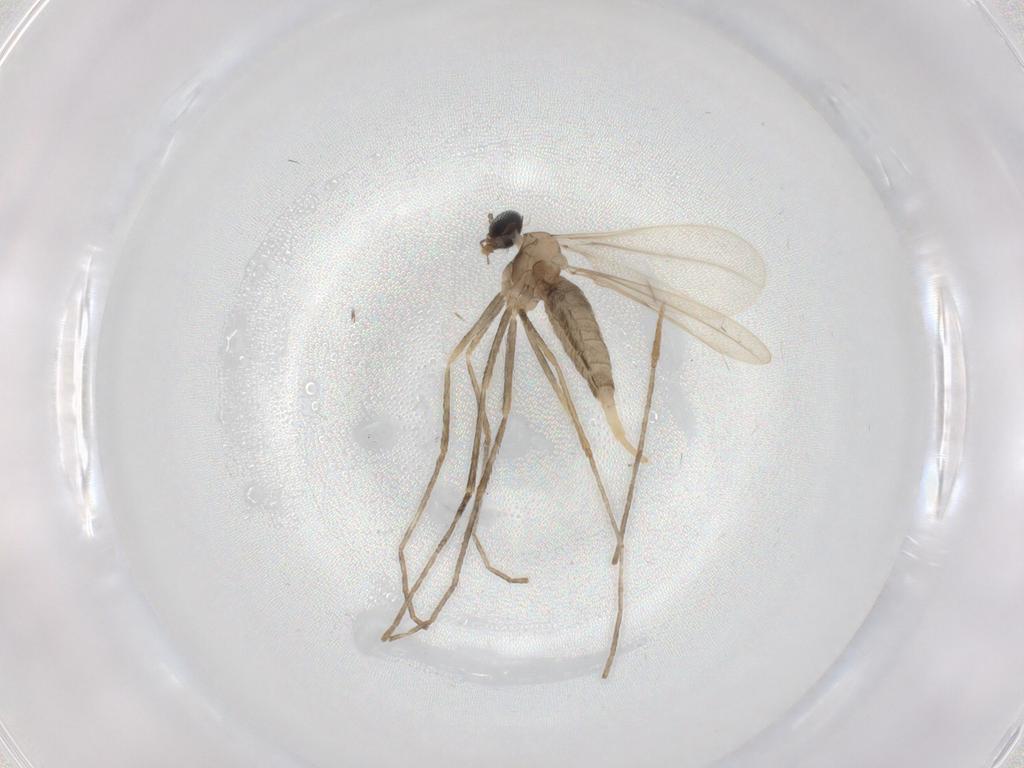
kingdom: Animalia
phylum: Arthropoda
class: Insecta
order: Diptera
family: Cecidomyiidae
